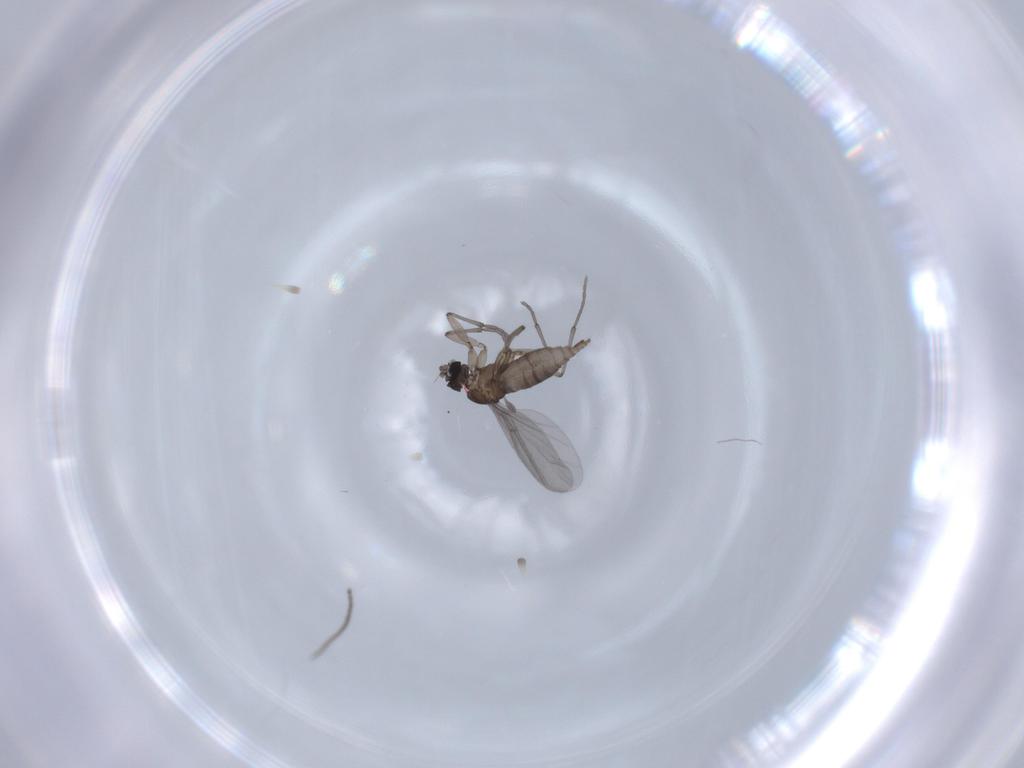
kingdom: Animalia
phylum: Arthropoda
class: Insecta
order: Diptera
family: Sciaridae
